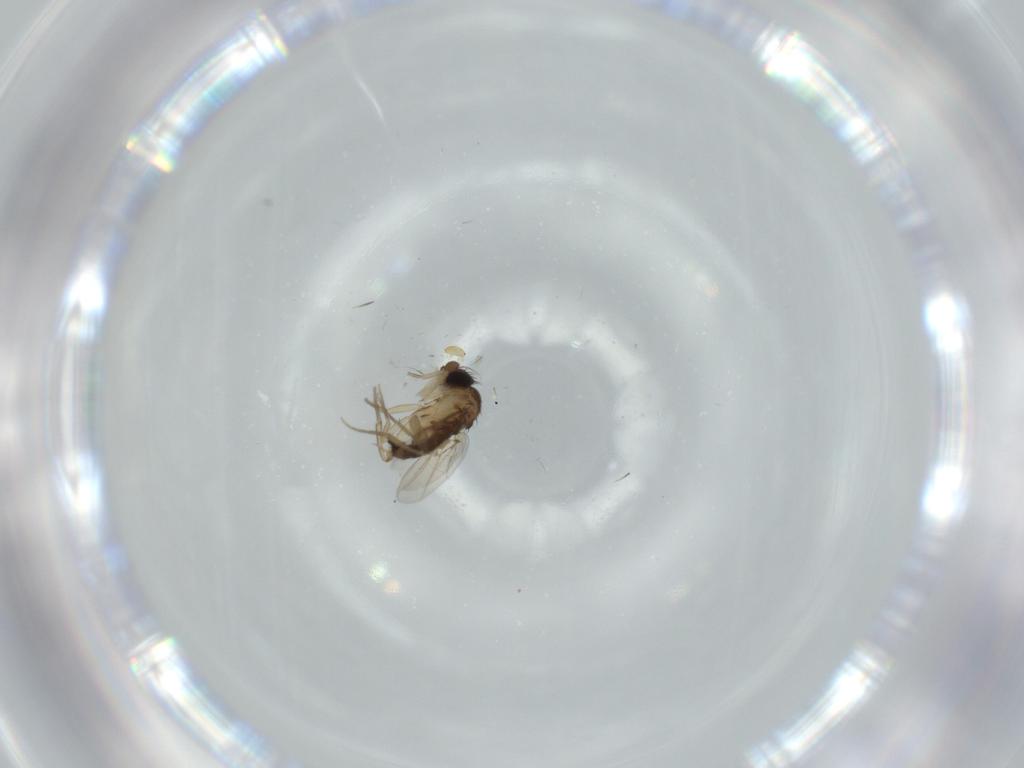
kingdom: Animalia
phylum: Arthropoda
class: Insecta
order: Diptera
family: Phoridae
